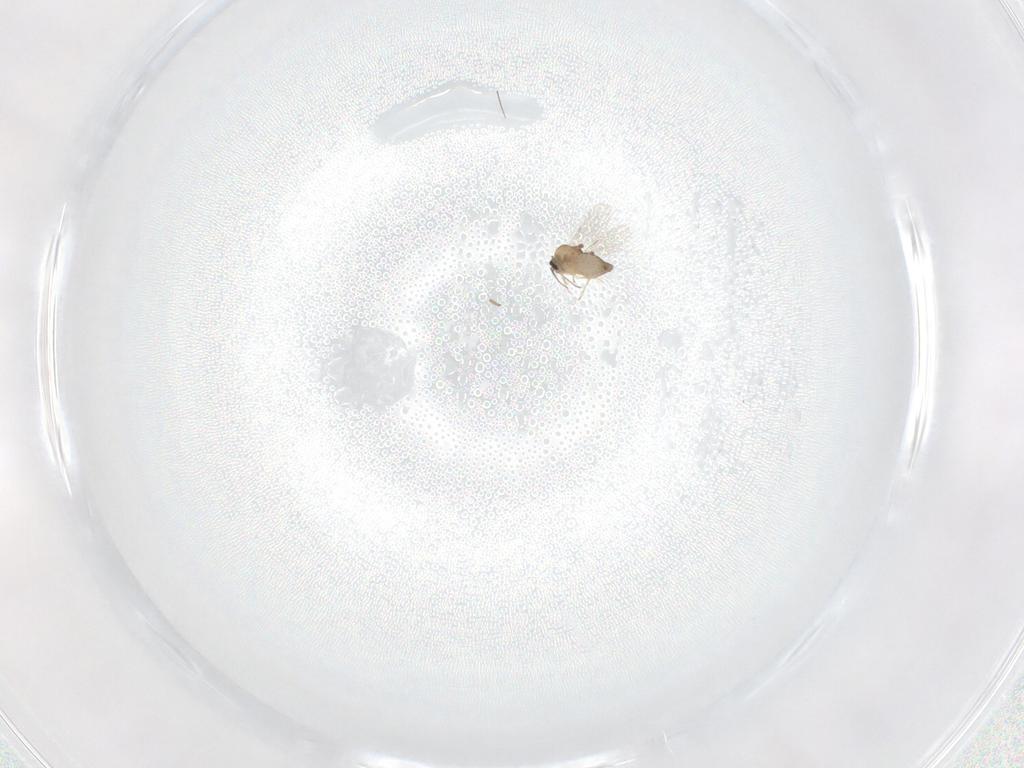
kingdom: Animalia
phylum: Arthropoda
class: Insecta
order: Diptera
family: Ceratopogonidae
